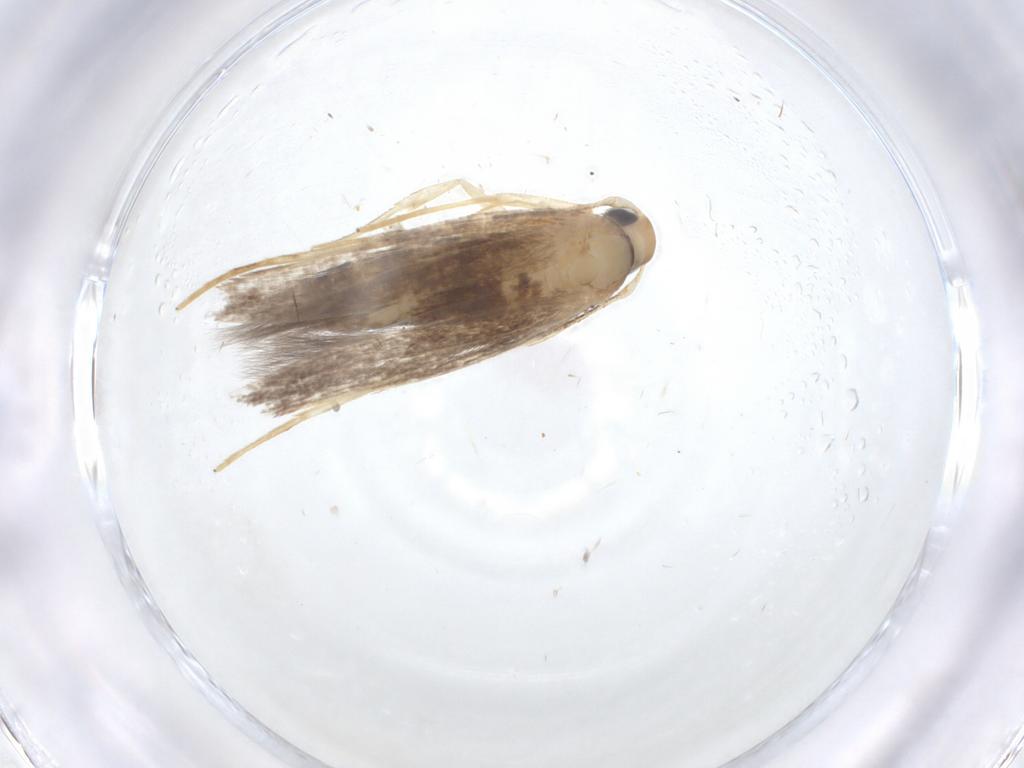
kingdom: Animalia
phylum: Arthropoda
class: Insecta
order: Lepidoptera
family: Cosmopterigidae
